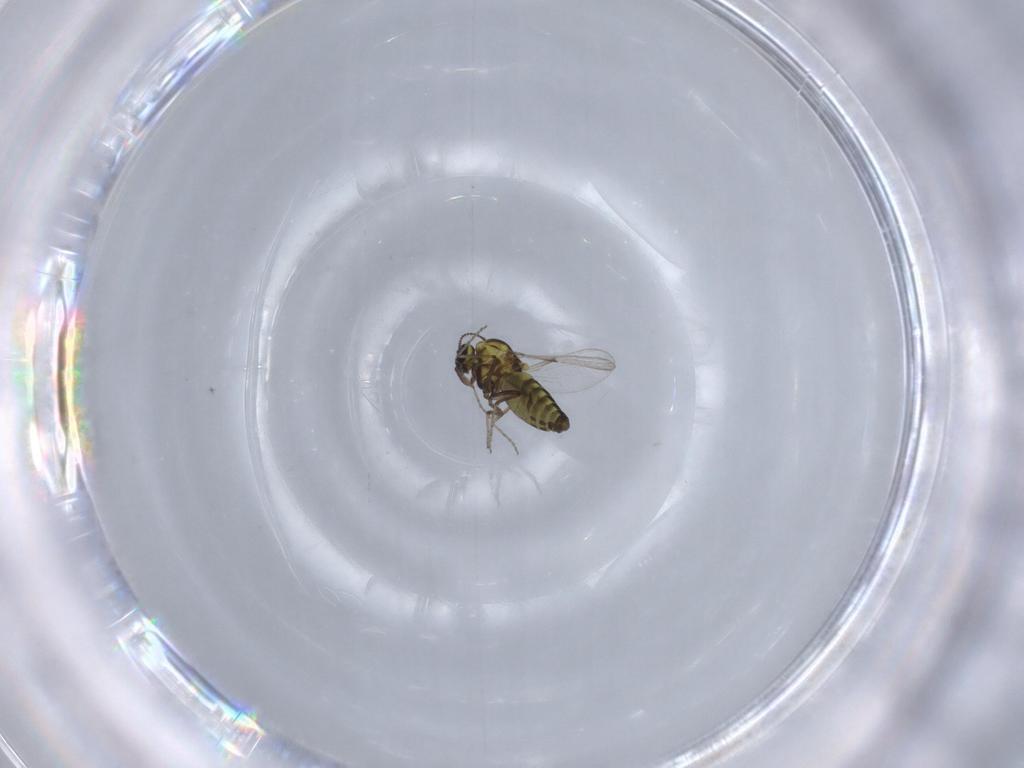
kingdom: Animalia
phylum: Arthropoda
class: Insecta
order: Diptera
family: Ceratopogonidae
